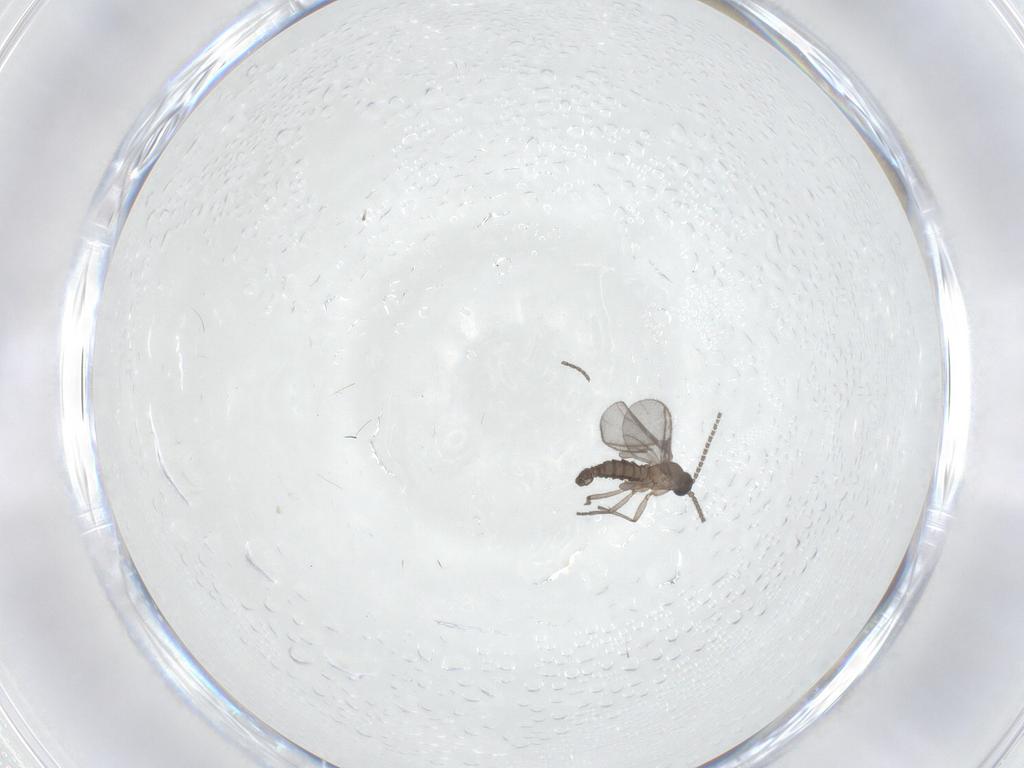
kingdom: Animalia
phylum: Arthropoda
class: Insecta
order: Diptera
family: Sciaridae
